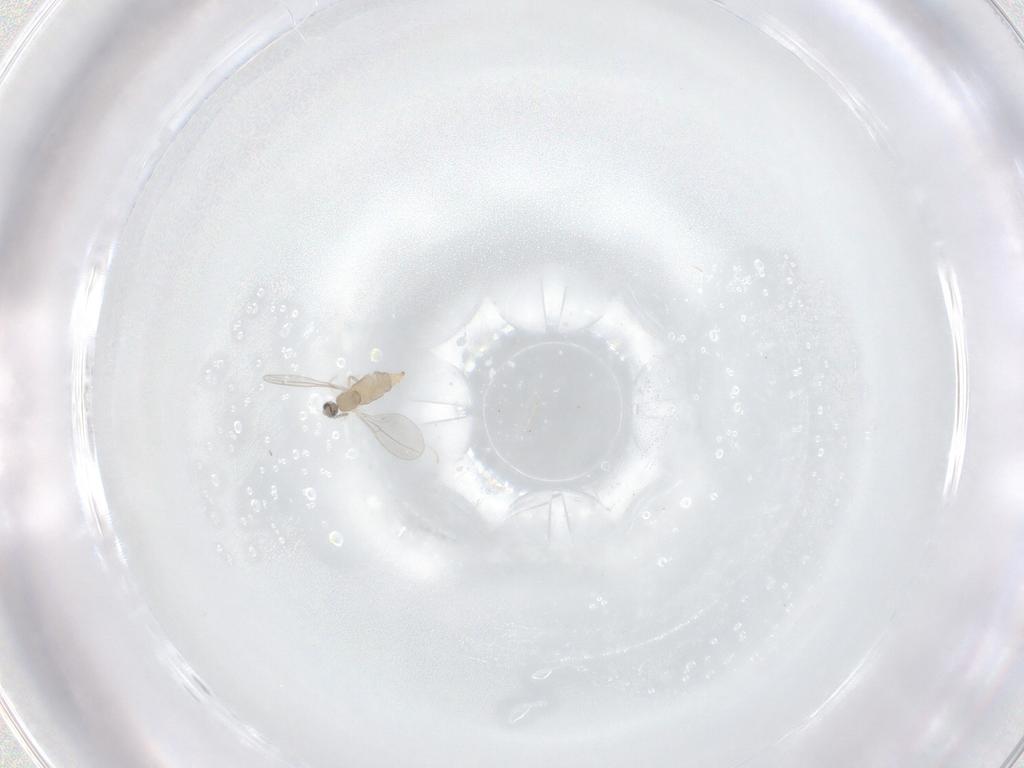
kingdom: Animalia
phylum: Arthropoda
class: Insecta
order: Diptera
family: Cecidomyiidae
